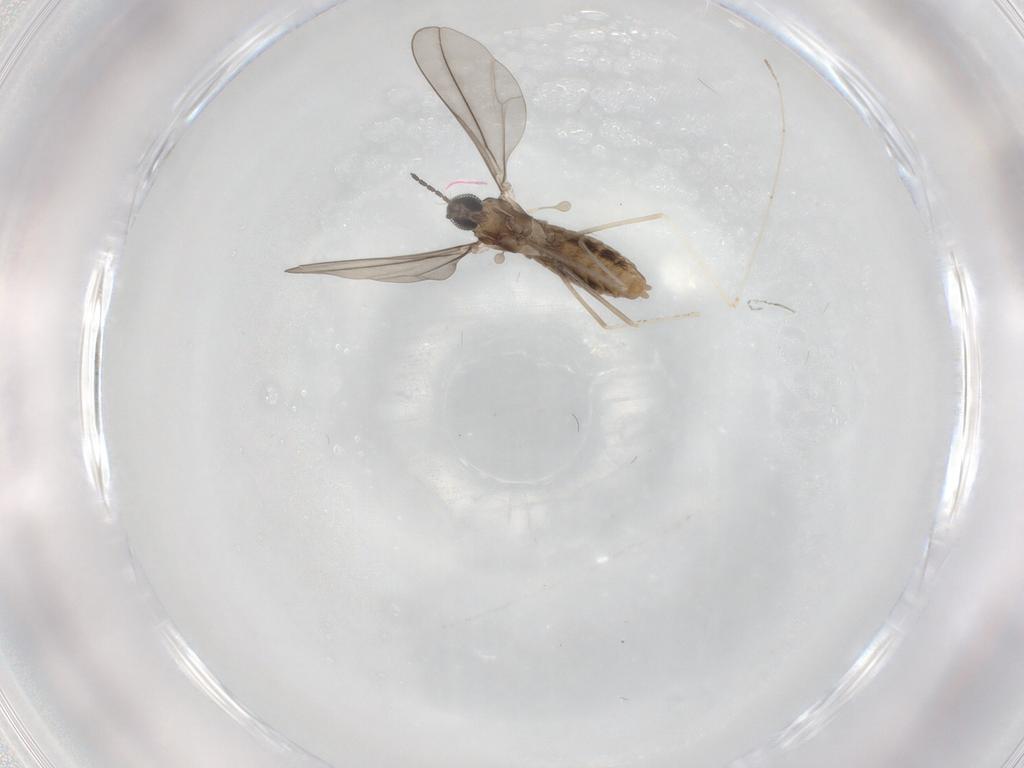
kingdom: Animalia
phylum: Arthropoda
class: Insecta
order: Diptera
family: Cecidomyiidae
